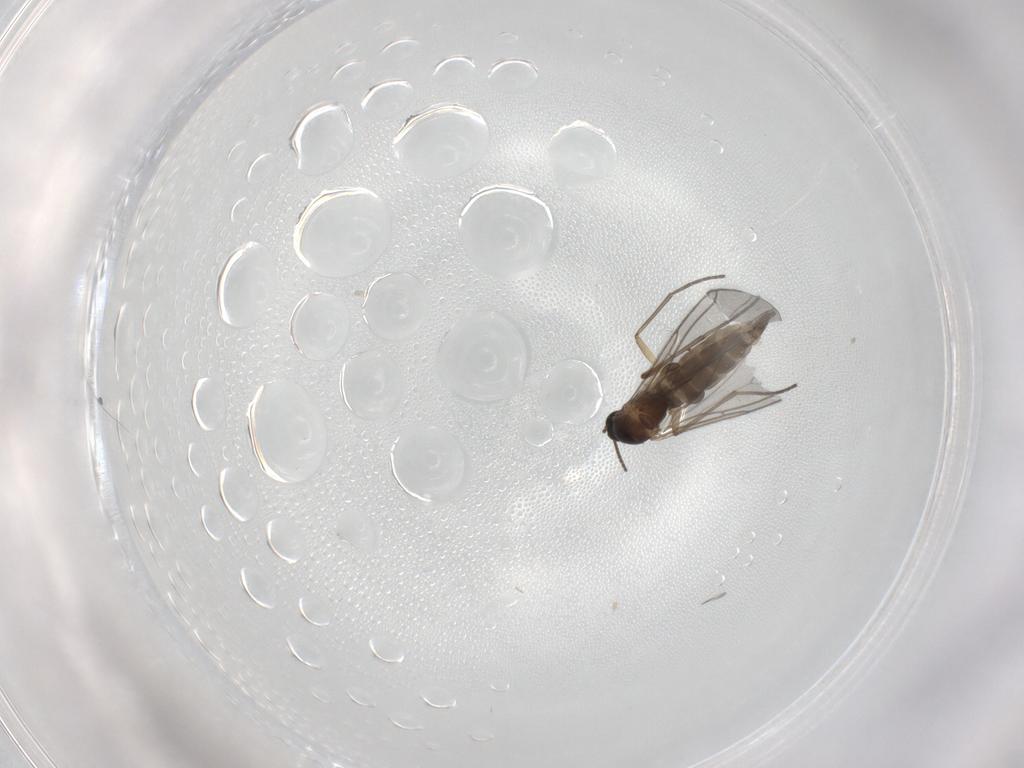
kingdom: Animalia
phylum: Arthropoda
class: Insecta
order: Diptera
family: Sciaridae
